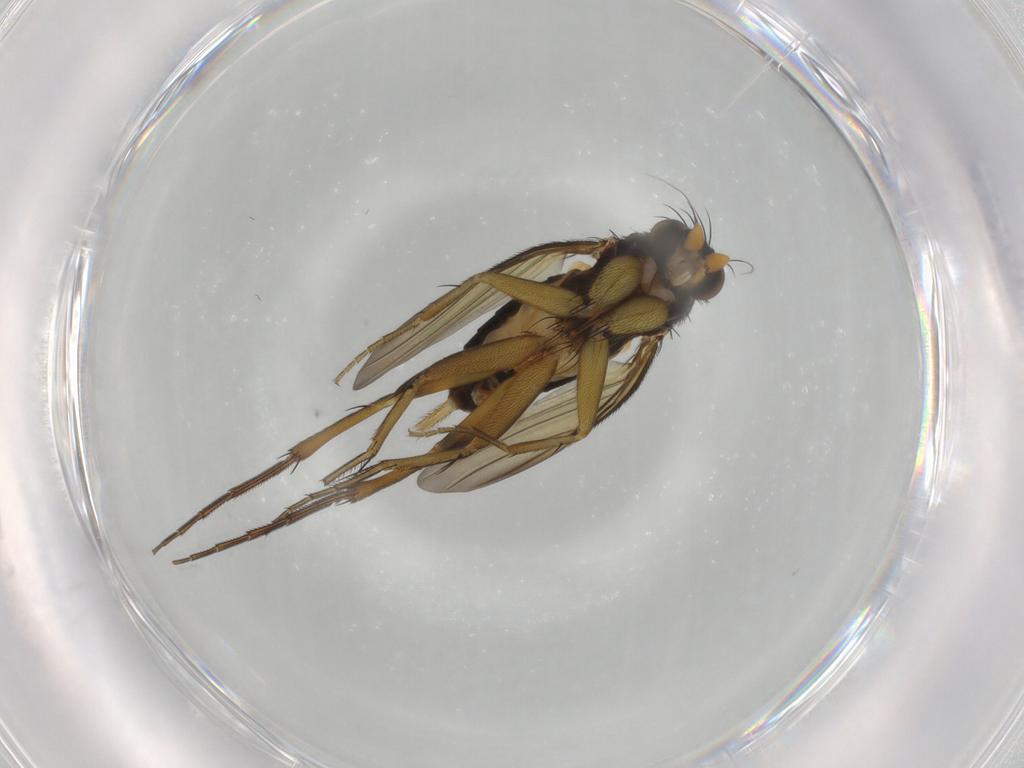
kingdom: Animalia
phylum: Arthropoda
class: Insecta
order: Diptera
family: Phoridae
